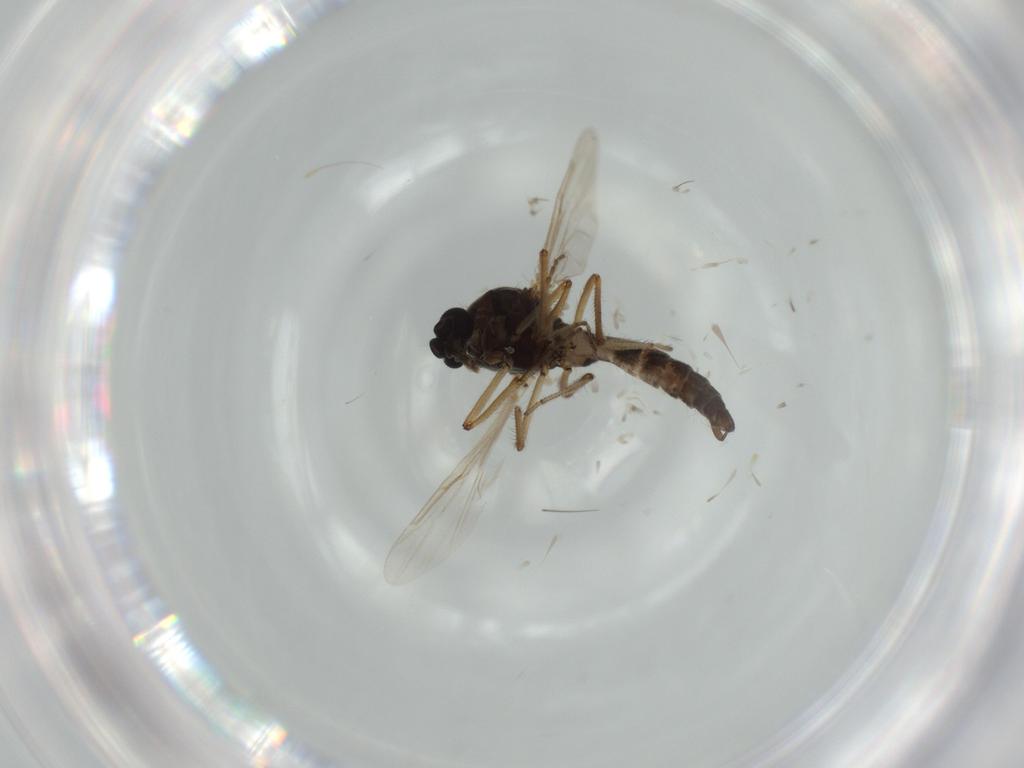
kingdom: Animalia
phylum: Arthropoda
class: Insecta
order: Diptera
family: Ceratopogonidae
